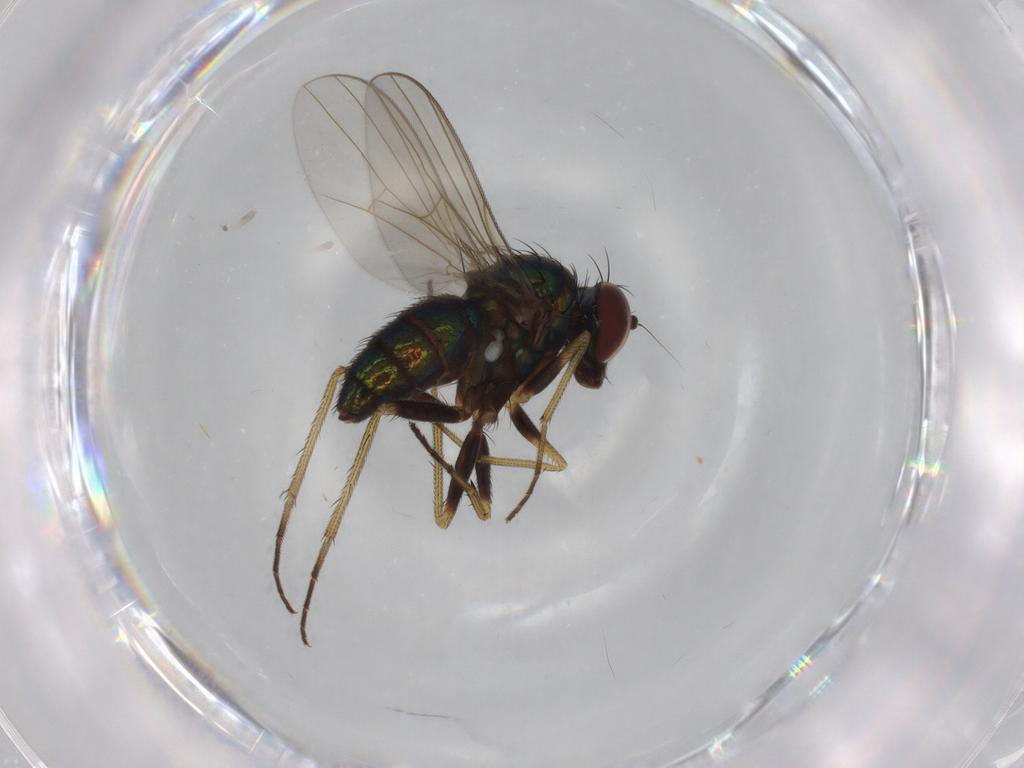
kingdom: Animalia
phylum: Arthropoda
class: Insecta
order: Diptera
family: Dolichopodidae
